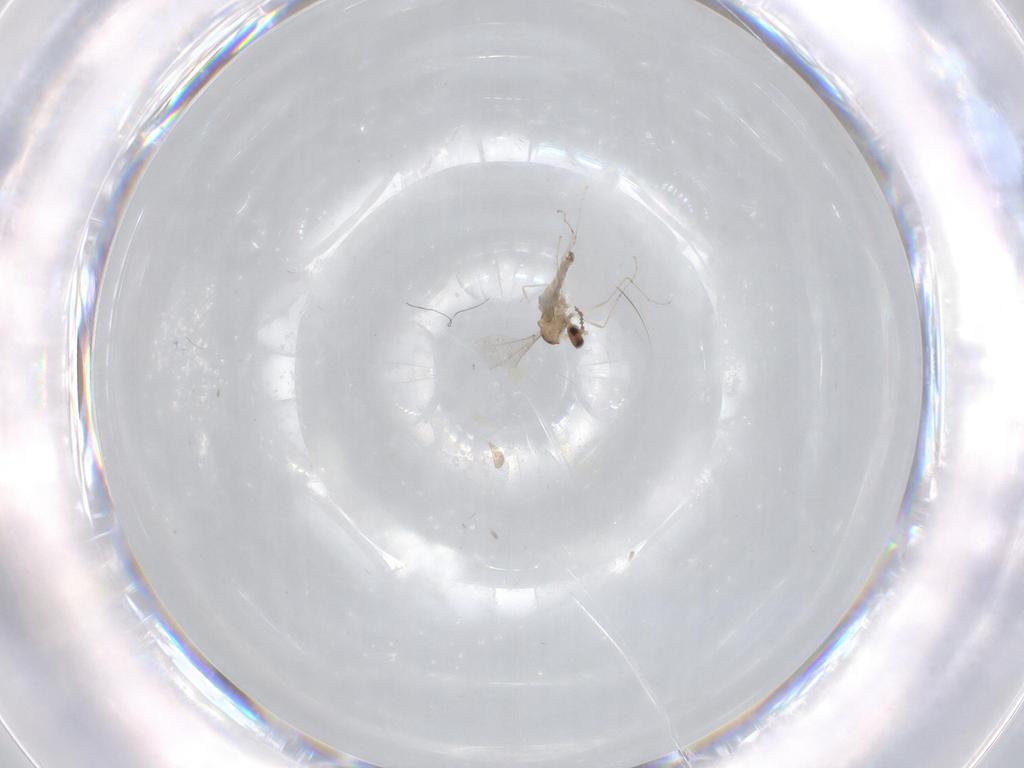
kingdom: Animalia
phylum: Arthropoda
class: Insecta
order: Diptera
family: Cecidomyiidae
